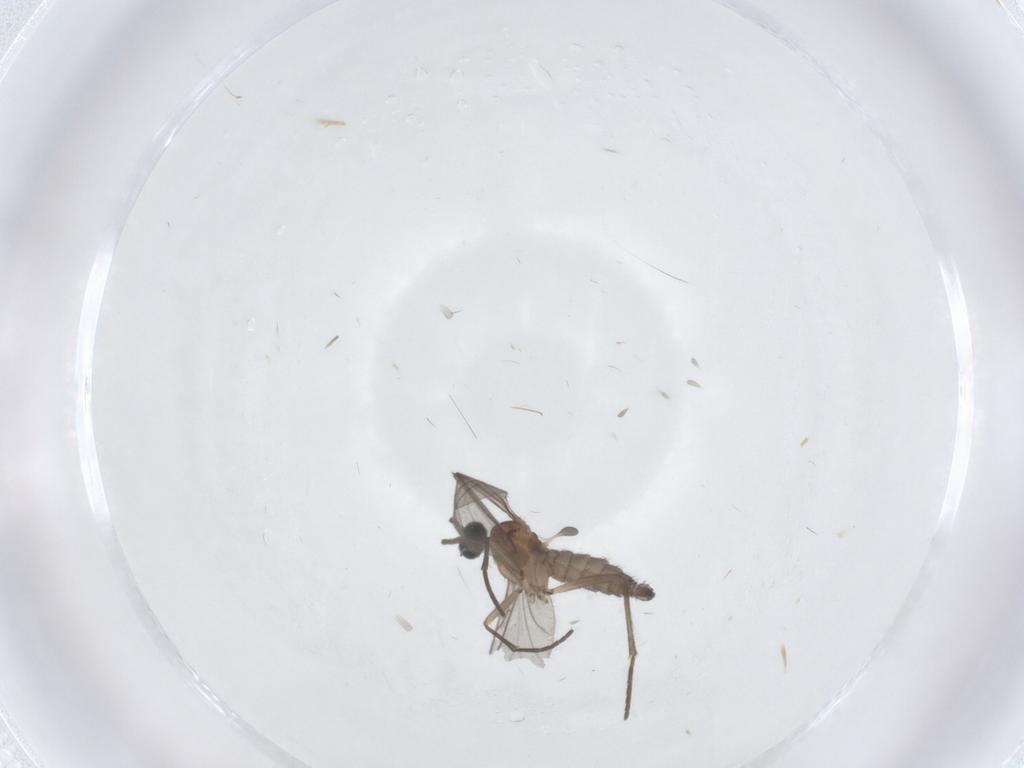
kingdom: Animalia
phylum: Arthropoda
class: Insecta
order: Diptera
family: Sciaridae
